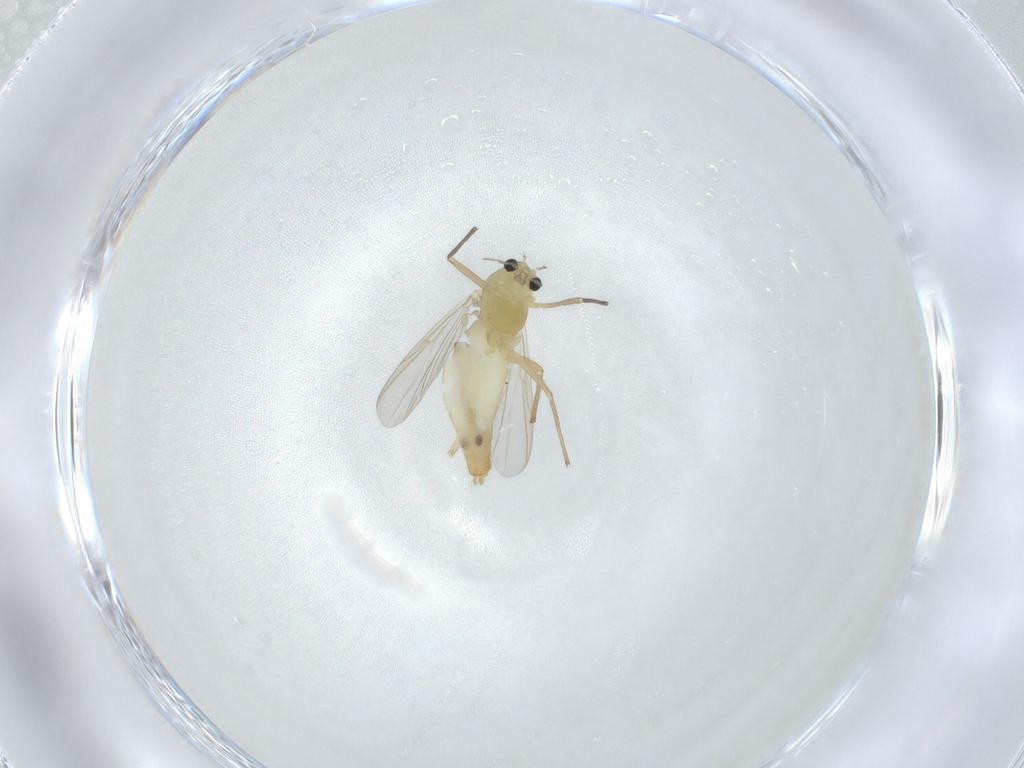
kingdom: Animalia
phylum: Arthropoda
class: Insecta
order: Diptera
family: Chironomidae
